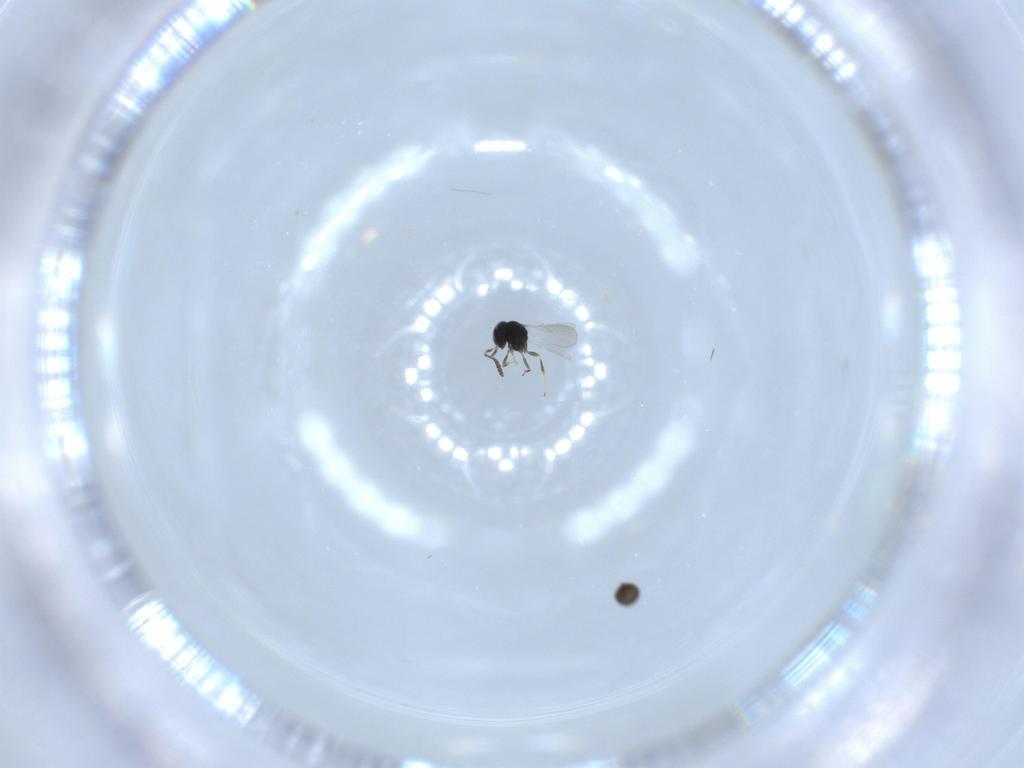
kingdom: Animalia
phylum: Arthropoda
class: Insecta
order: Hymenoptera
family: Scelionidae
